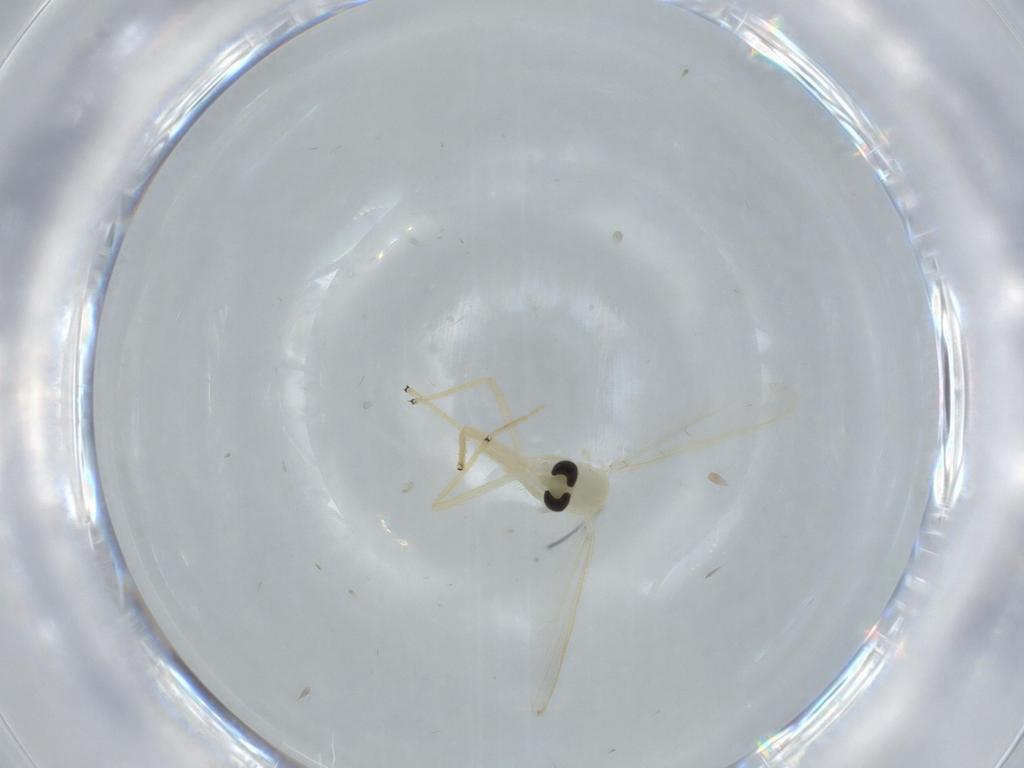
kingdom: Animalia
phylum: Arthropoda
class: Insecta
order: Diptera
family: Chironomidae
